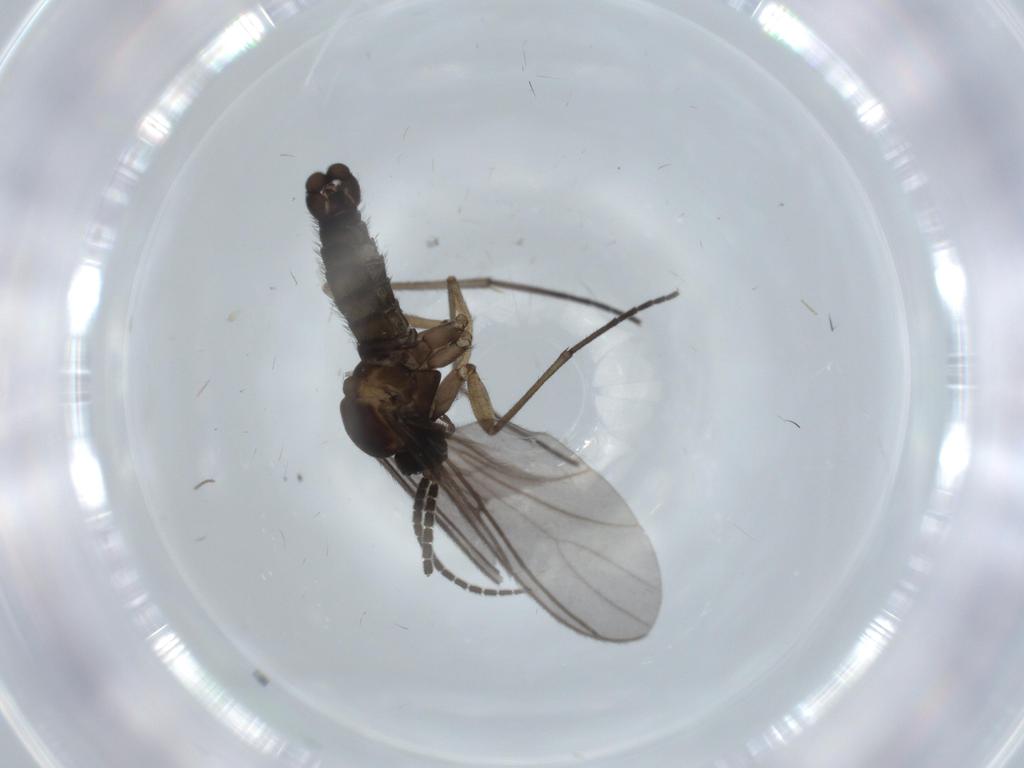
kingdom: Animalia
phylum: Arthropoda
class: Insecta
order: Diptera
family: Sciaridae
